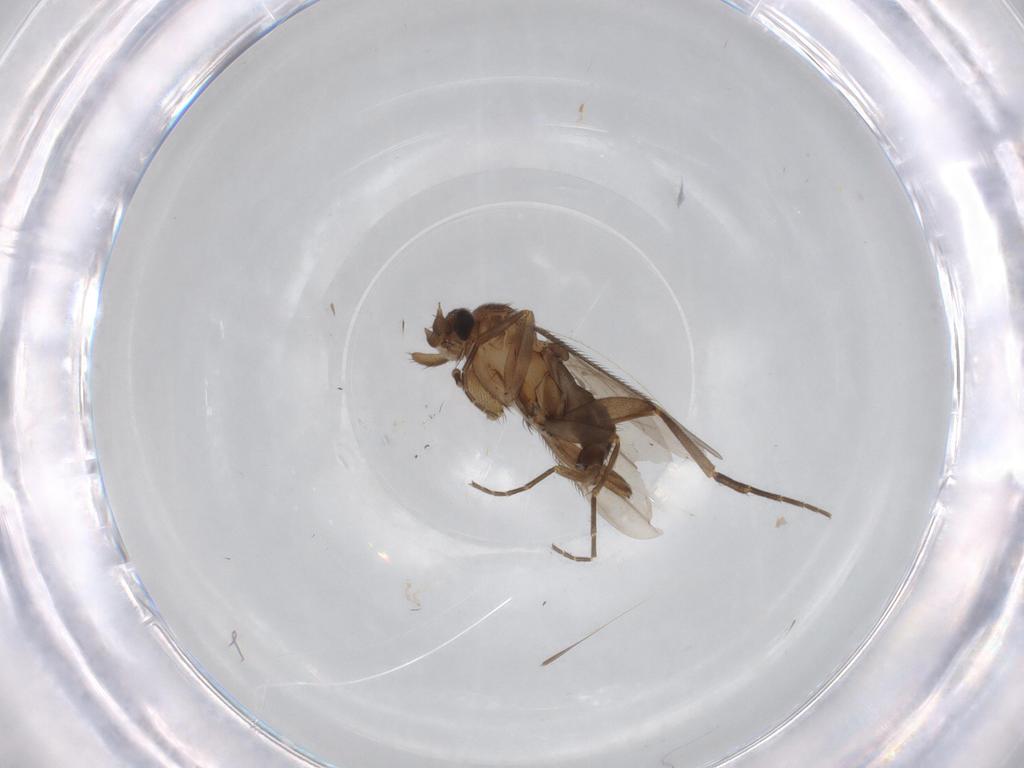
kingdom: Animalia
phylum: Arthropoda
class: Insecta
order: Diptera
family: Phoridae
